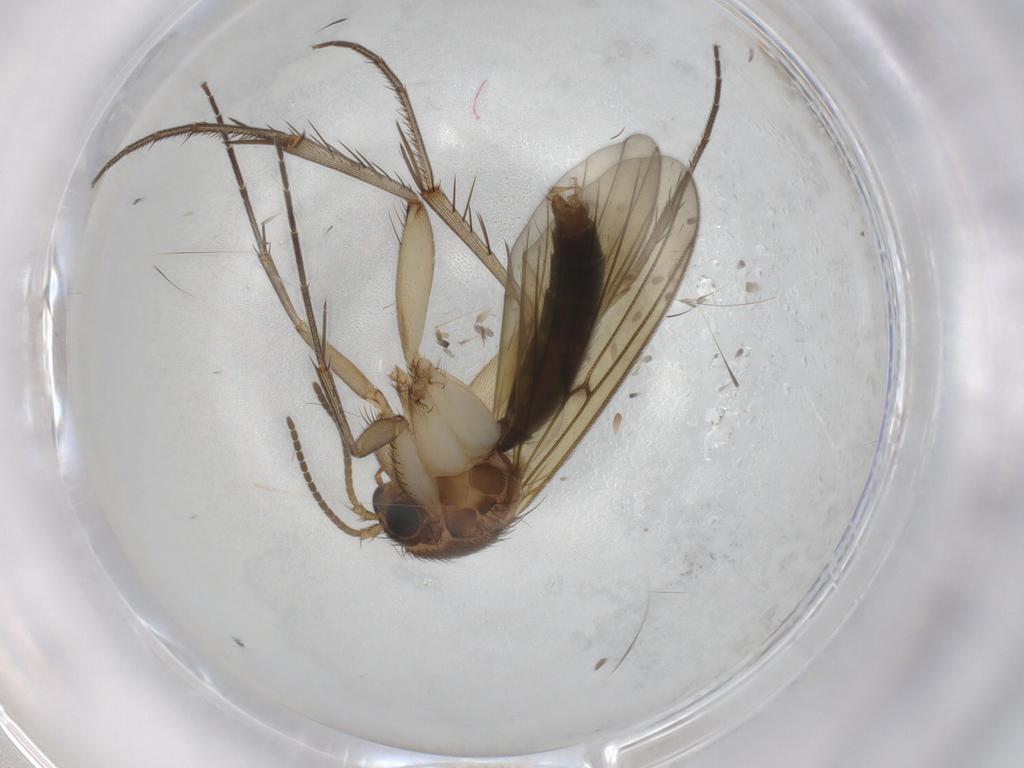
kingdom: Animalia
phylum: Arthropoda
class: Insecta
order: Diptera
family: Mycetophilidae
